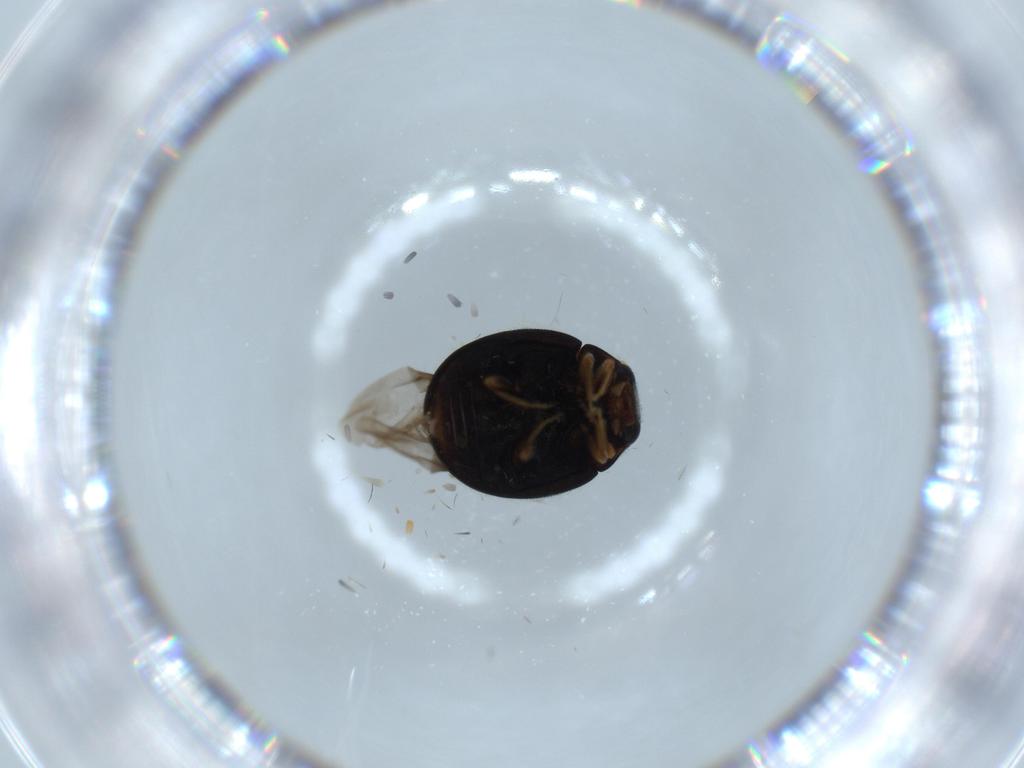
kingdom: Animalia
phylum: Arthropoda
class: Insecta
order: Coleoptera
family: Coccinellidae
